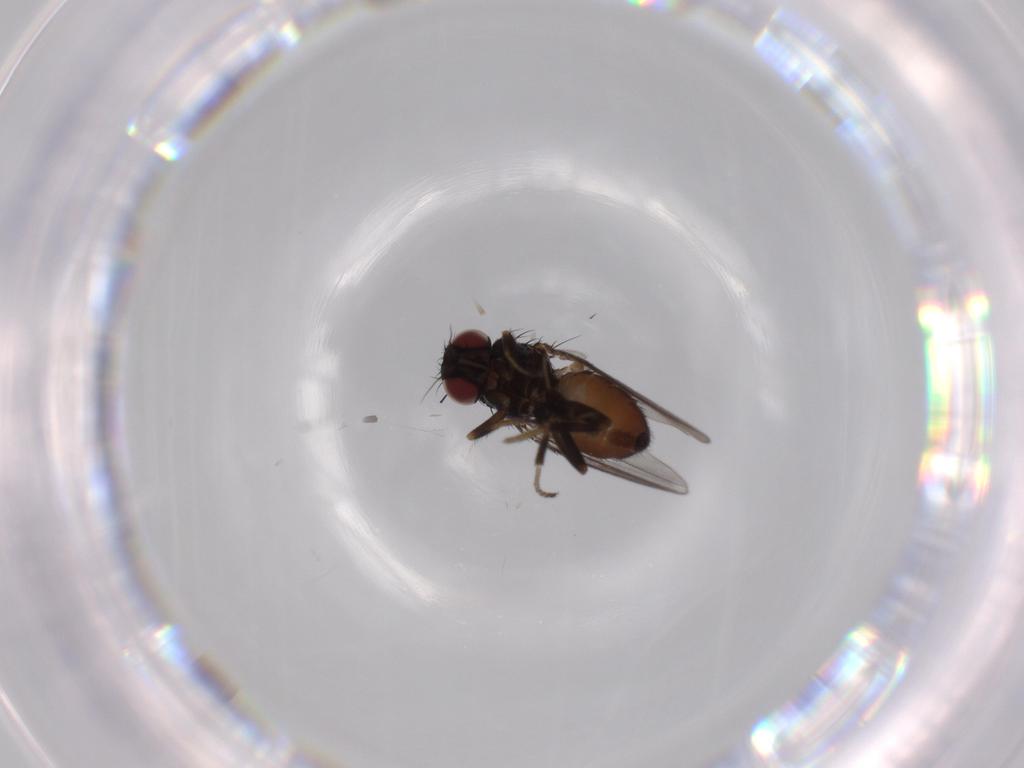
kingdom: Animalia
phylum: Arthropoda
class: Insecta
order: Diptera
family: Milichiidae
